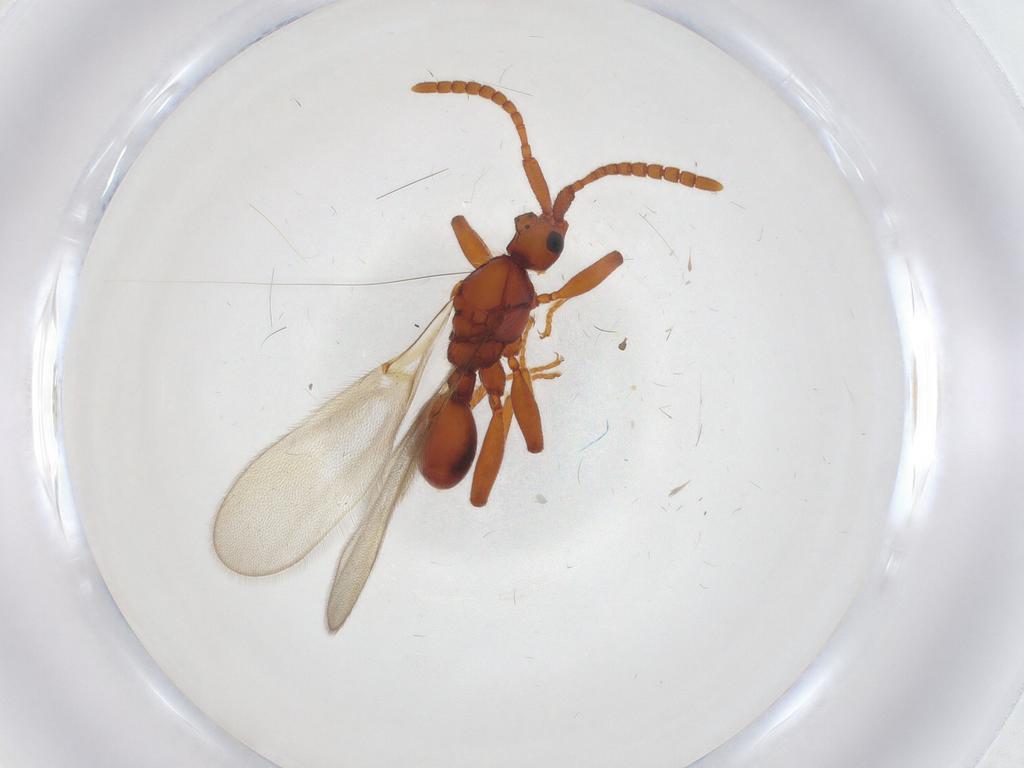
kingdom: Animalia
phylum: Arthropoda
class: Insecta
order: Hymenoptera
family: Diapriidae
